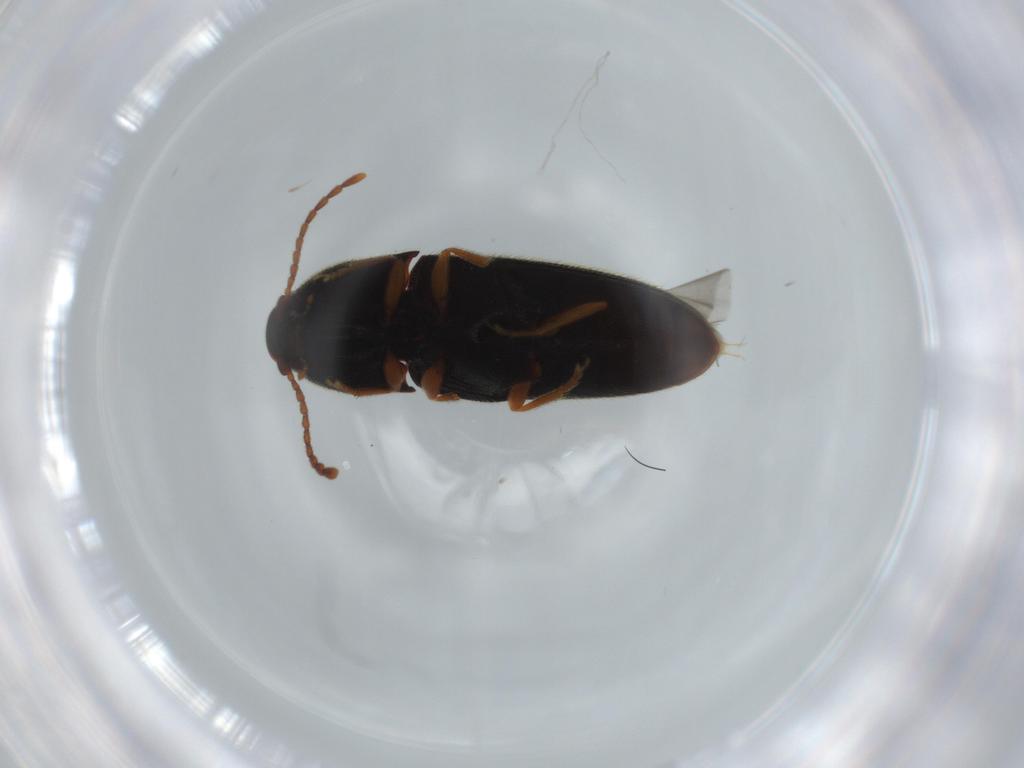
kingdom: Animalia
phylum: Arthropoda
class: Insecta
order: Coleoptera
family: Elateridae
